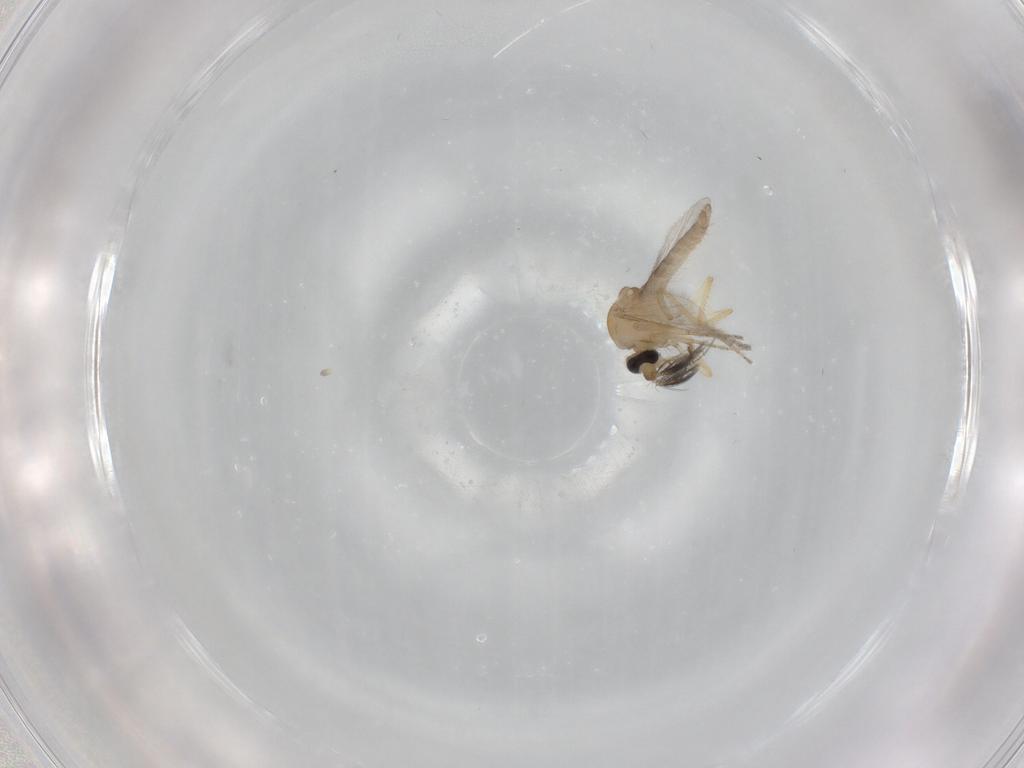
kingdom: Animalia
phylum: Arthropoda
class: Insecta
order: Diptera
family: Ceratopogonidae
